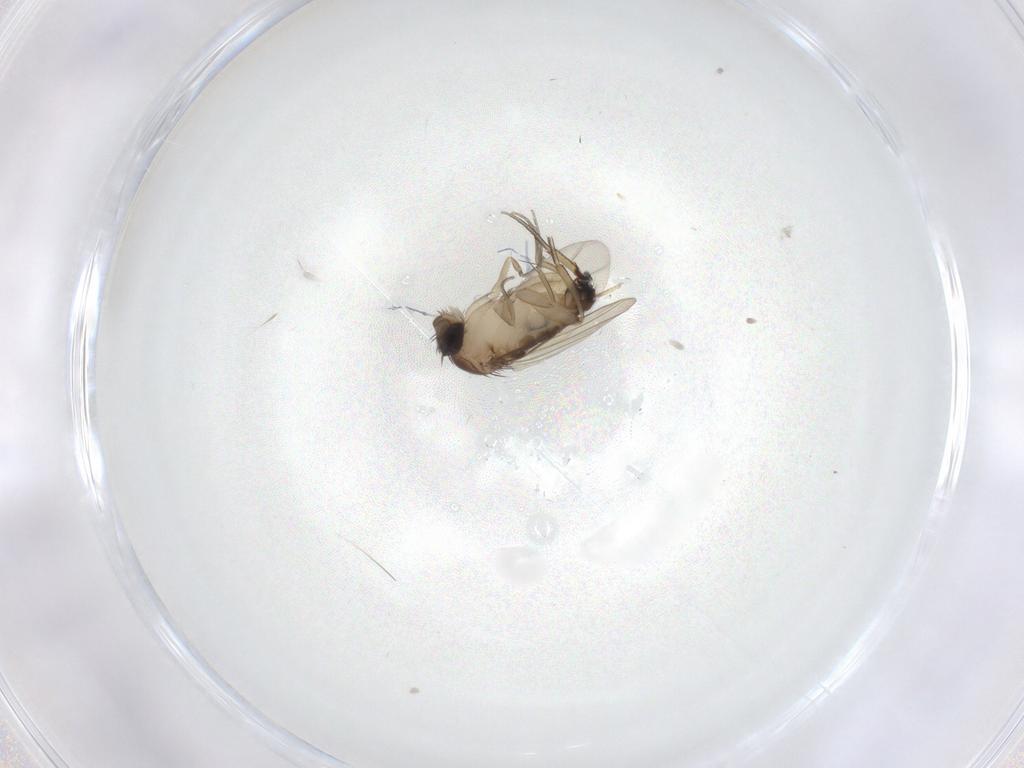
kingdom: Animalia
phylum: Arthropoda
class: Insecta
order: Diptera
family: Phoridae
